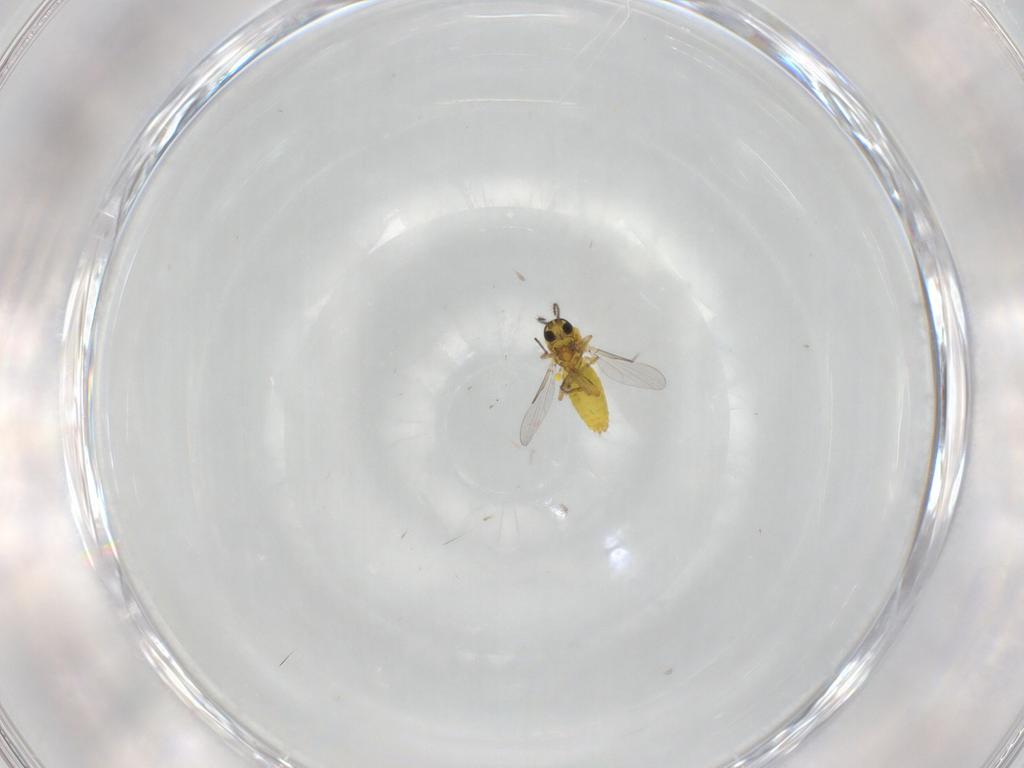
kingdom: Animalia
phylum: Arthropoda
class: Insecta
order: Diptera
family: Ceratopogonidae
